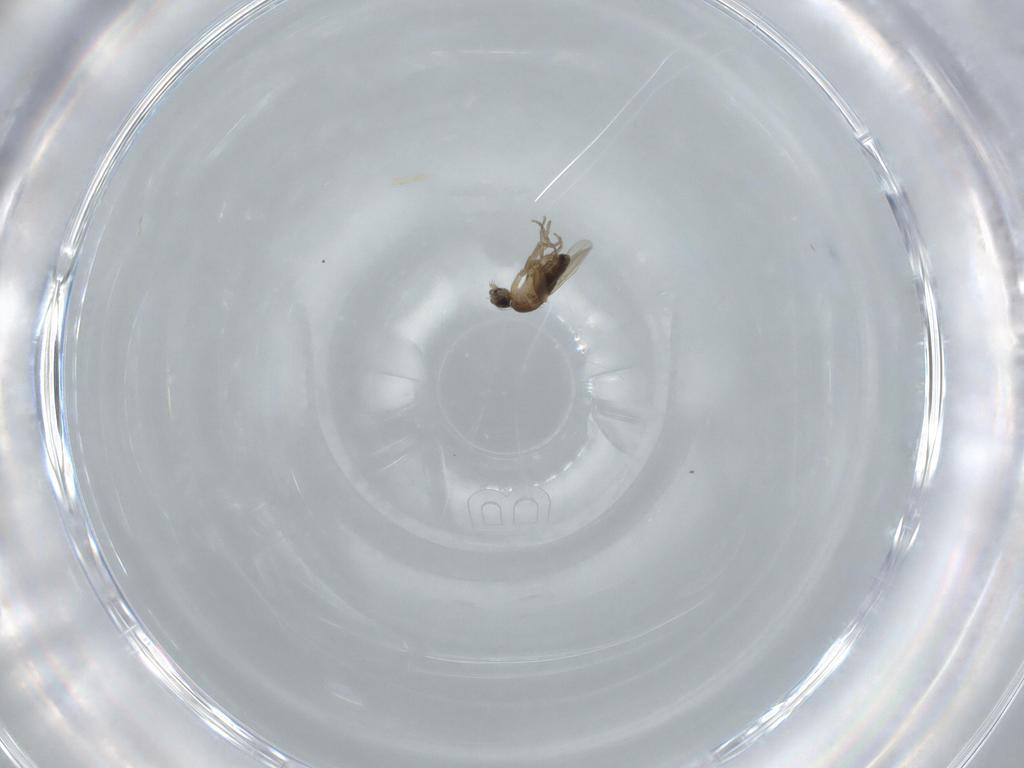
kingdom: Animalia
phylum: Arthropoda
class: Insecta
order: Diptera
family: Phoridae
